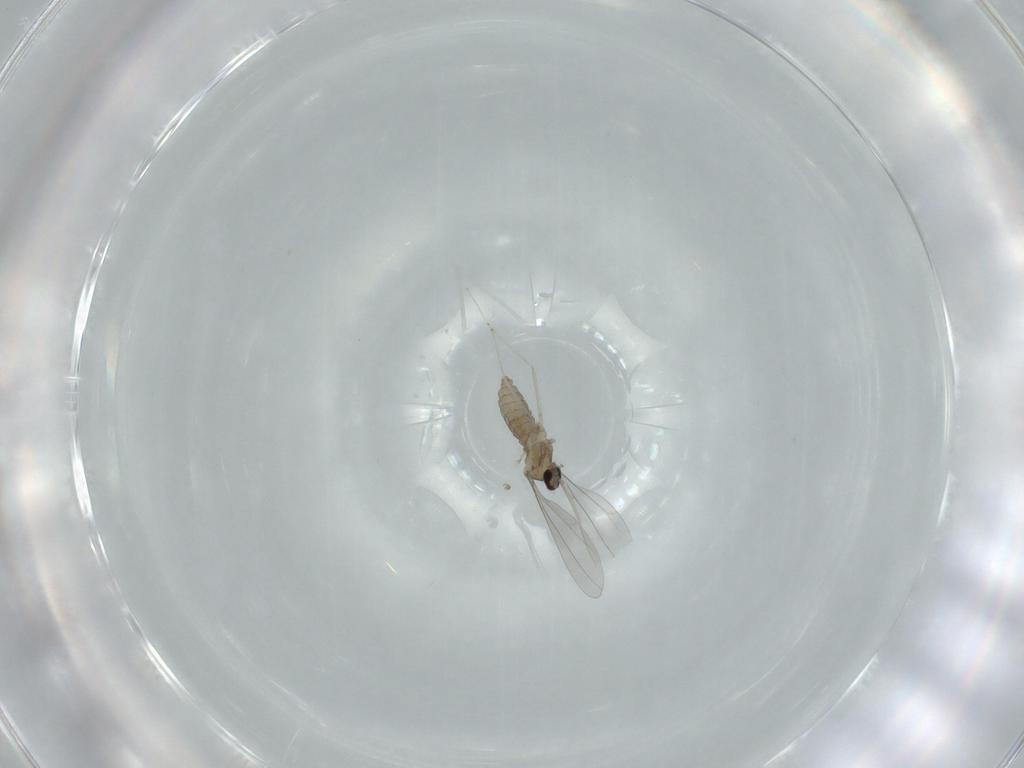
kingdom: Animalia
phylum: Arthropoda
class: Insecta
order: Diptera
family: Cecidomyiidae
